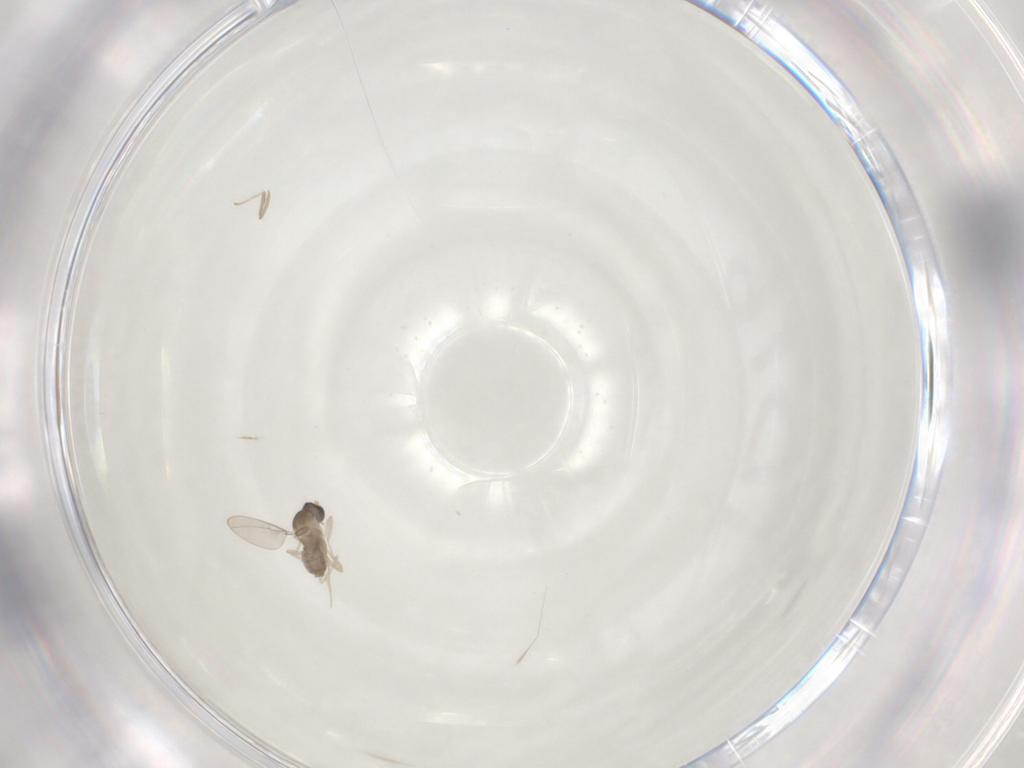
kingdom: Animalia
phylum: Arthropoda
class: Insecta
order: Diptera
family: Cecidomyiidae
